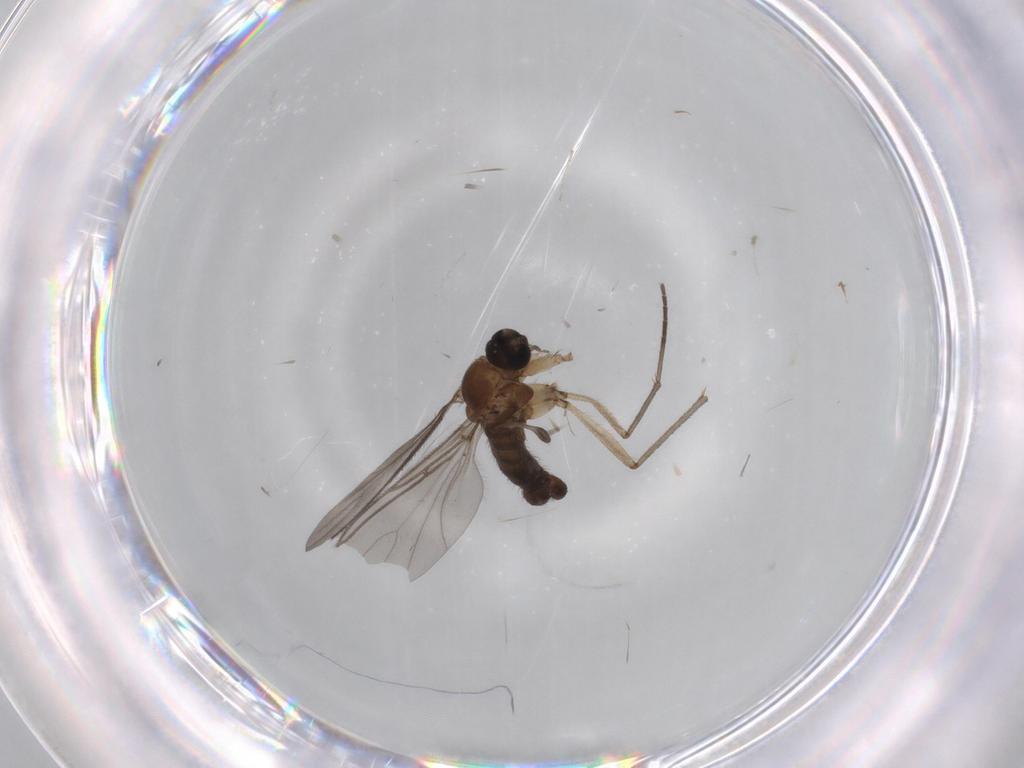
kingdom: Animalia
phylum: Arthropoda
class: Insecta
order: Diptera
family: Sciaridae
